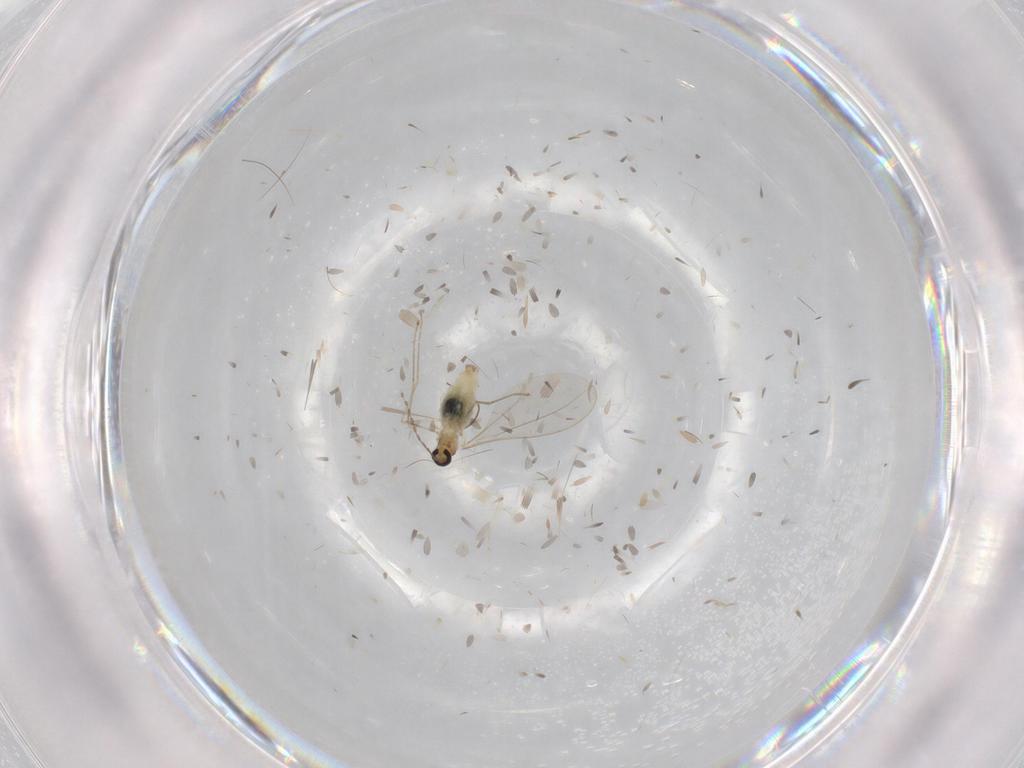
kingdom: Animalia
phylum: Arthropoda
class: Insecta
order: Diptera
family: Cecidomyiidae
